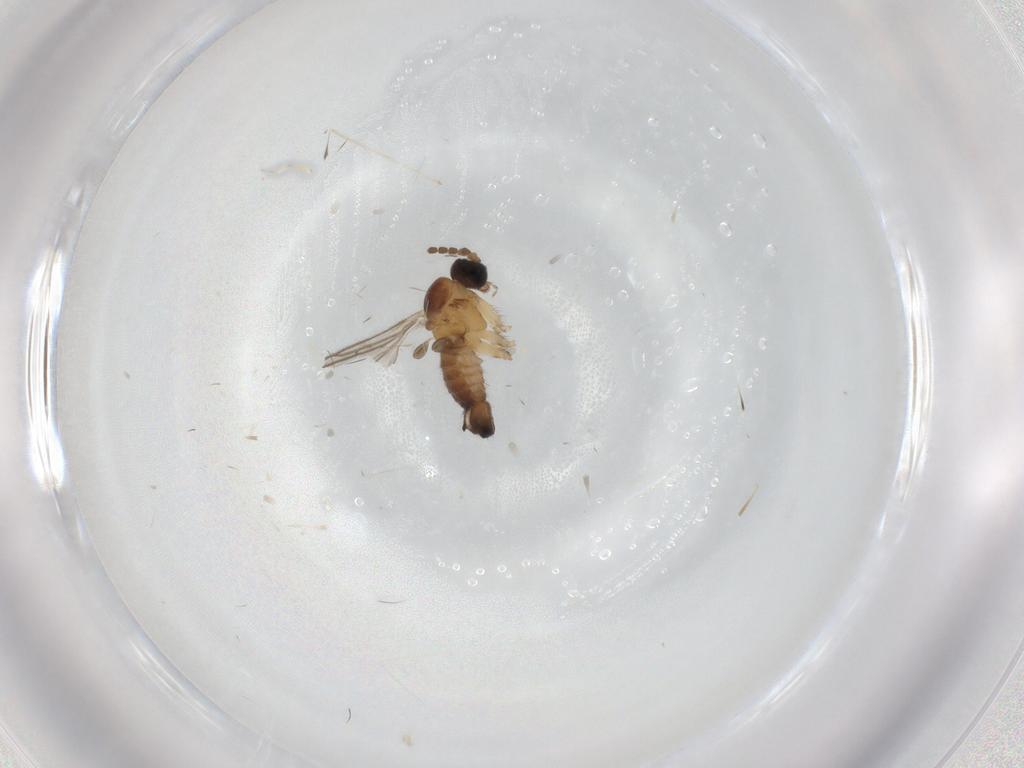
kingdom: Animalia
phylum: Arthropoda
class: Insecta
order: Diptera
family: Sciaridae
